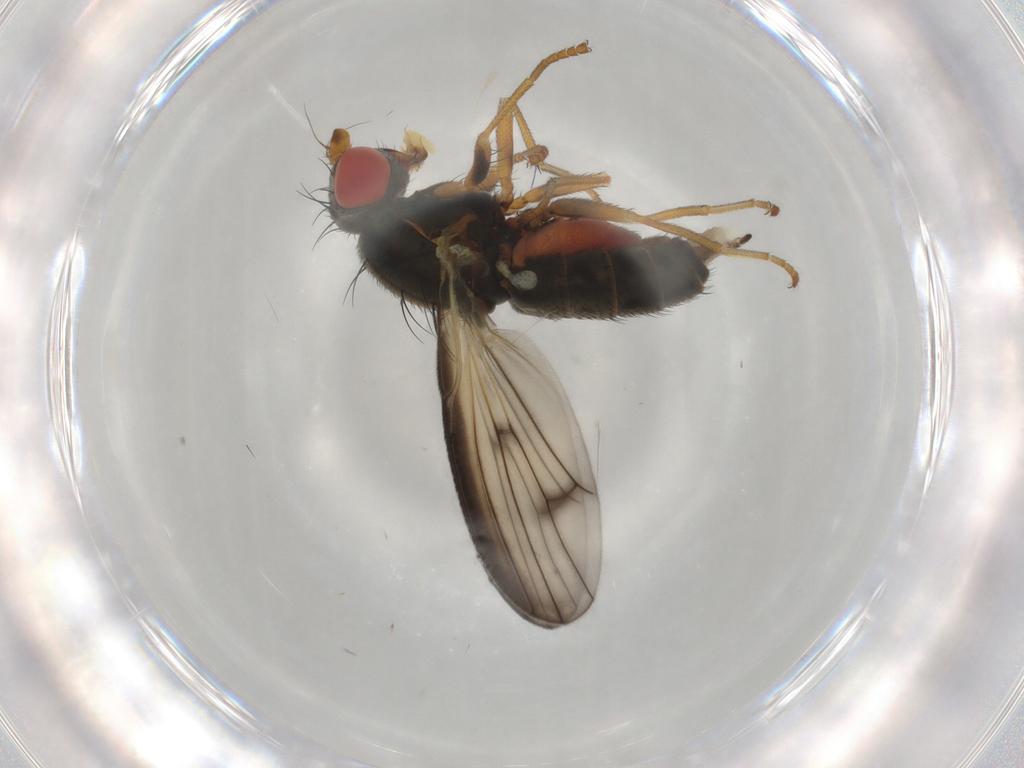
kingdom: Animalia
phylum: Arthropoda
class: Insecta
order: Diptera
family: Chamaemyiidae
